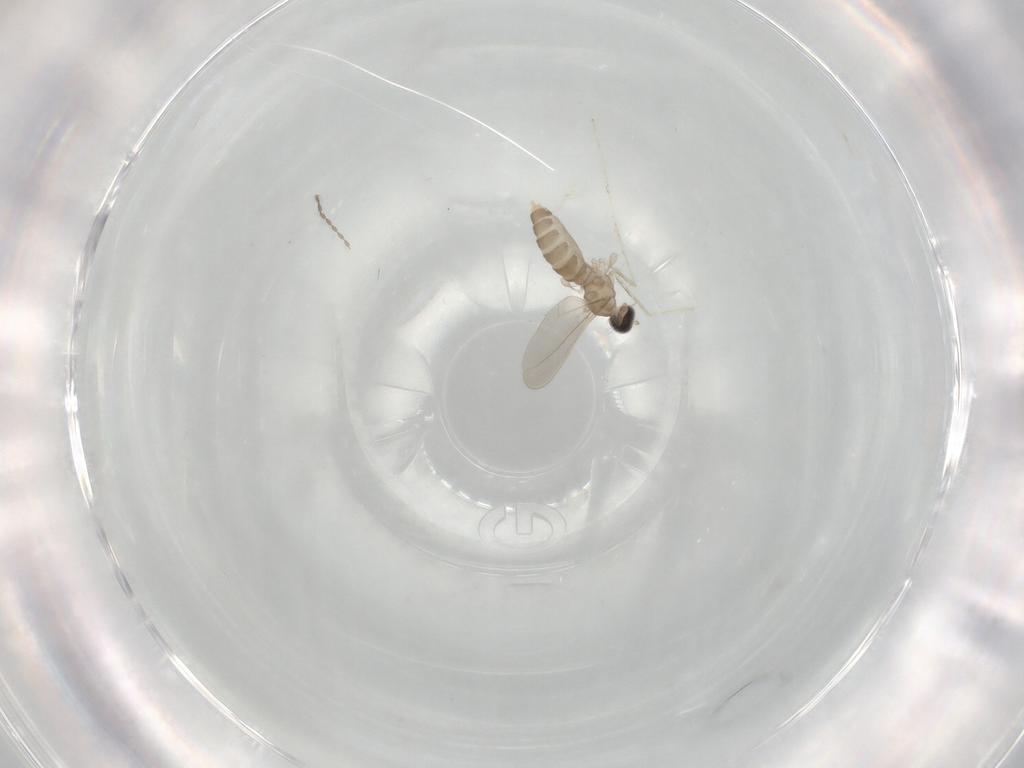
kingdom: Animalia
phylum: Arthropoda
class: Insecta
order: Diptera
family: Cecidomyiidae
